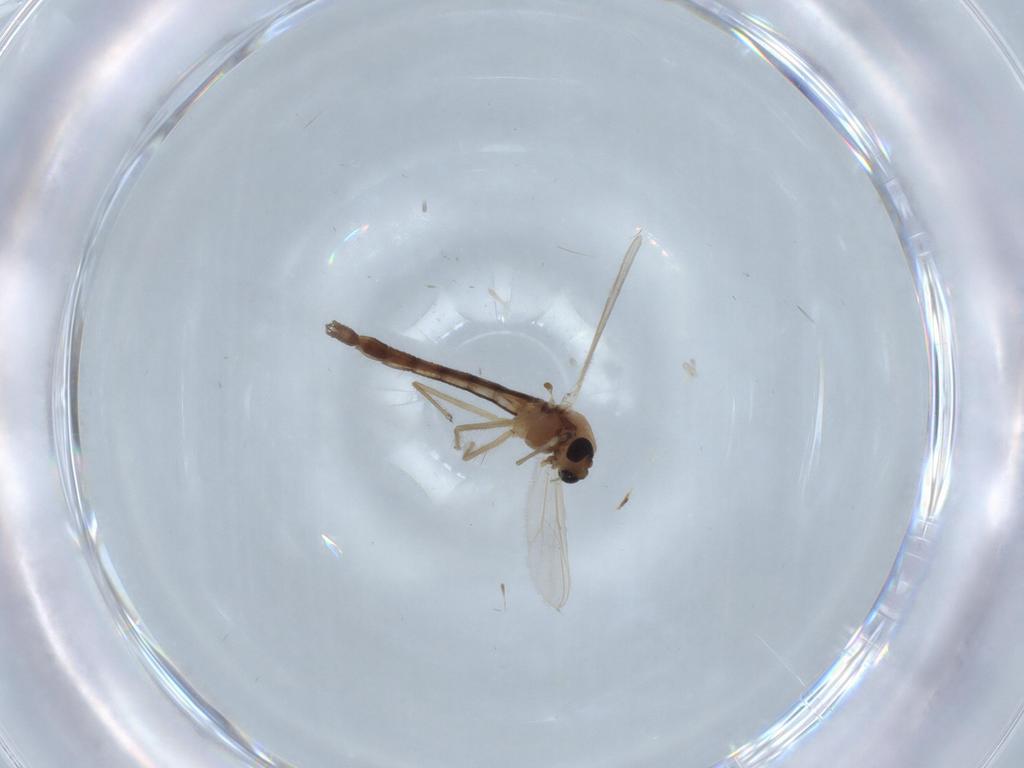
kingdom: Animalia
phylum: Arthropoda
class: Insecta
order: Diptera
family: Chironomidae
